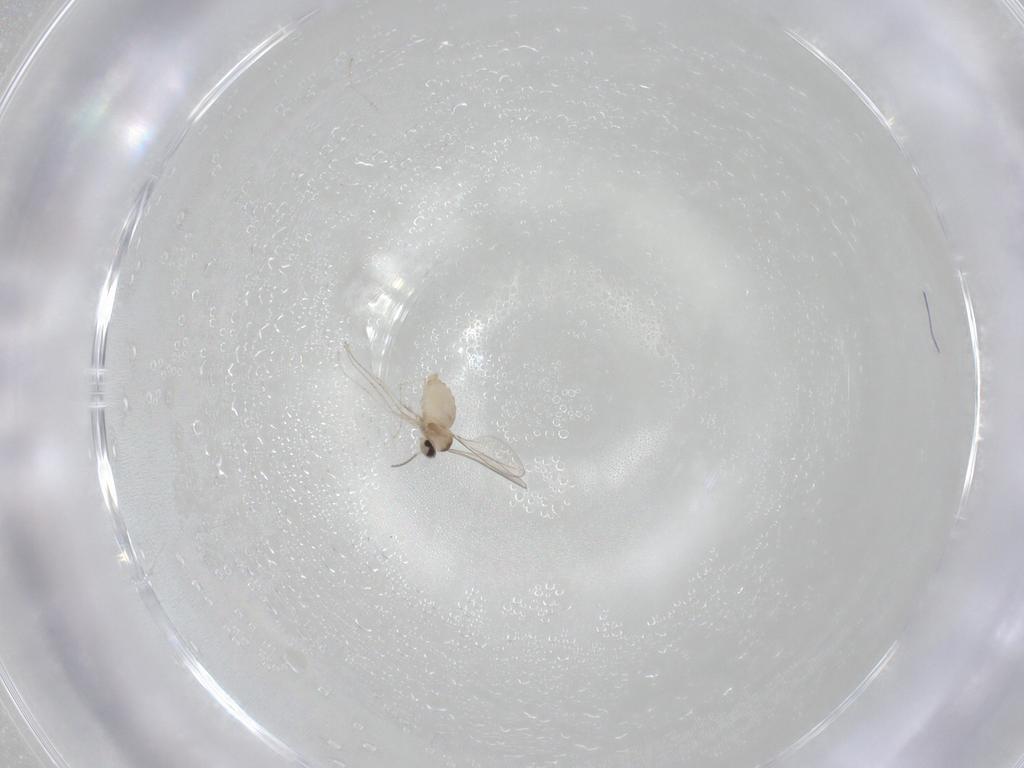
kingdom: Animalia
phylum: Arthropoda
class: Insecta
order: Diptera
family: Cecidomyiidae
